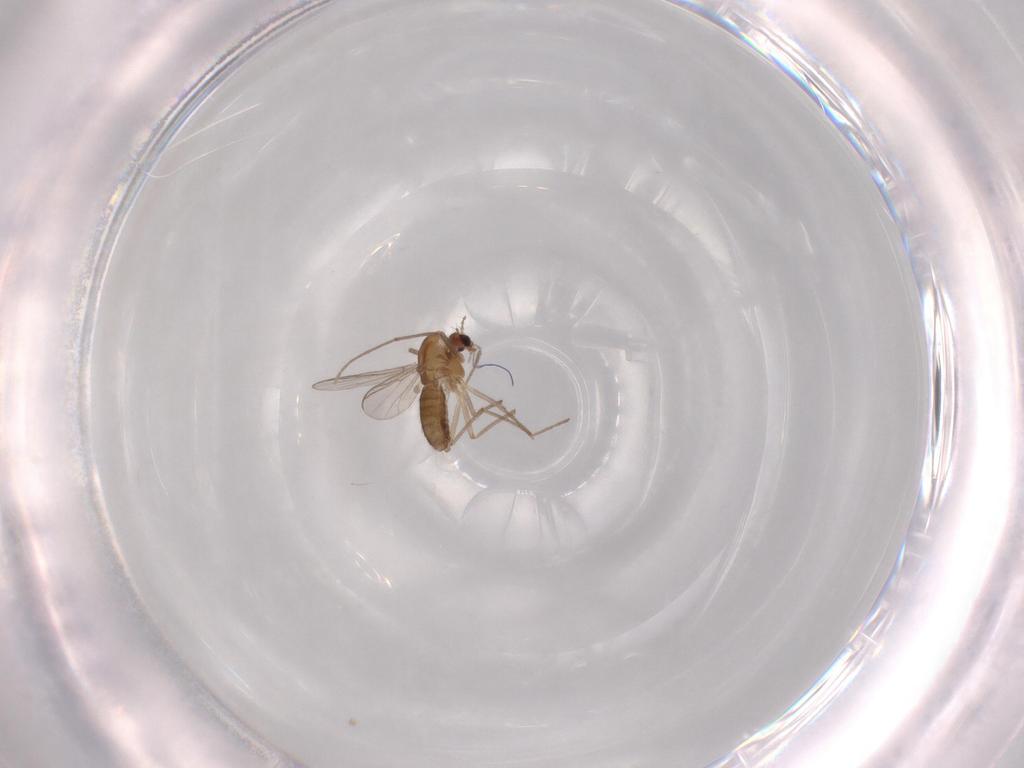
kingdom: Animalia
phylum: Arthropoda
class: Insecta
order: Diptera
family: Chironomidae
